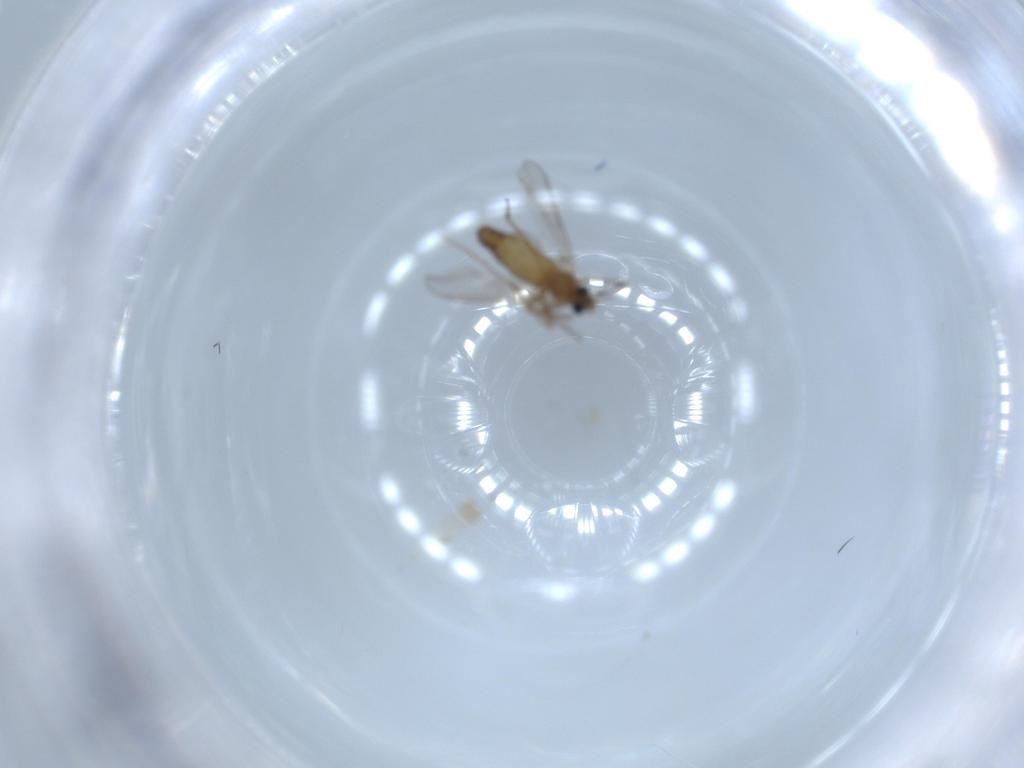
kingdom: Animalia
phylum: Arthropoda
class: Insecta
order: Diptera
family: Chironomidae
